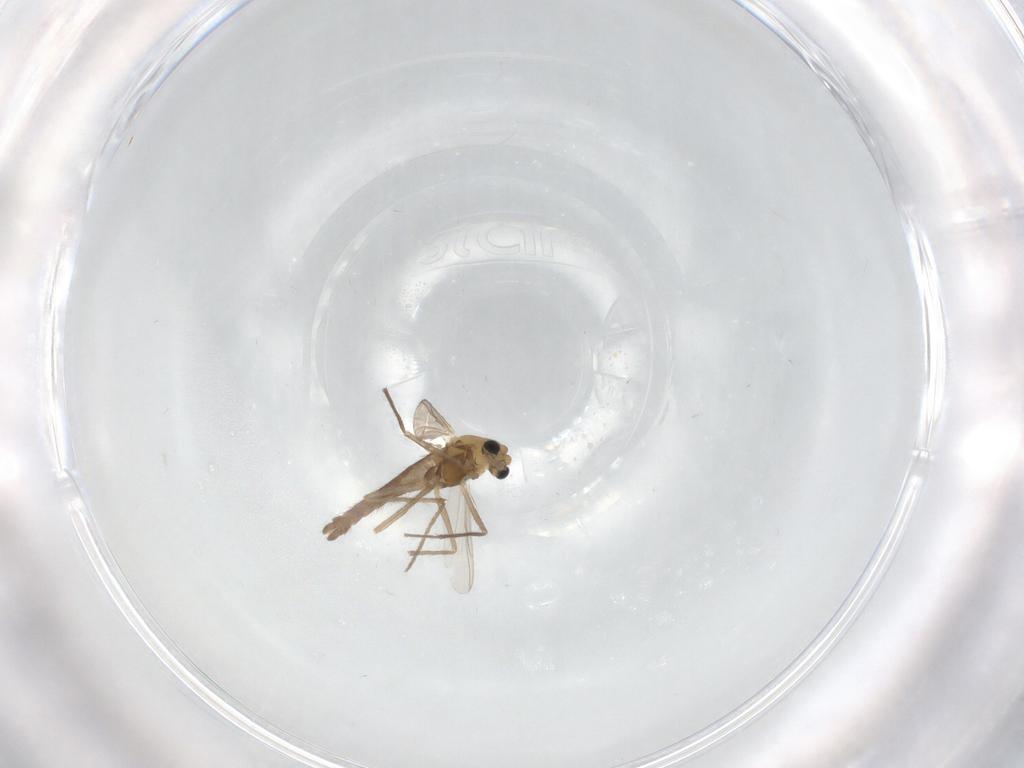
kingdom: Animalia
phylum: Arthropoda
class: Insecta
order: Diptera
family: Chironomidae
